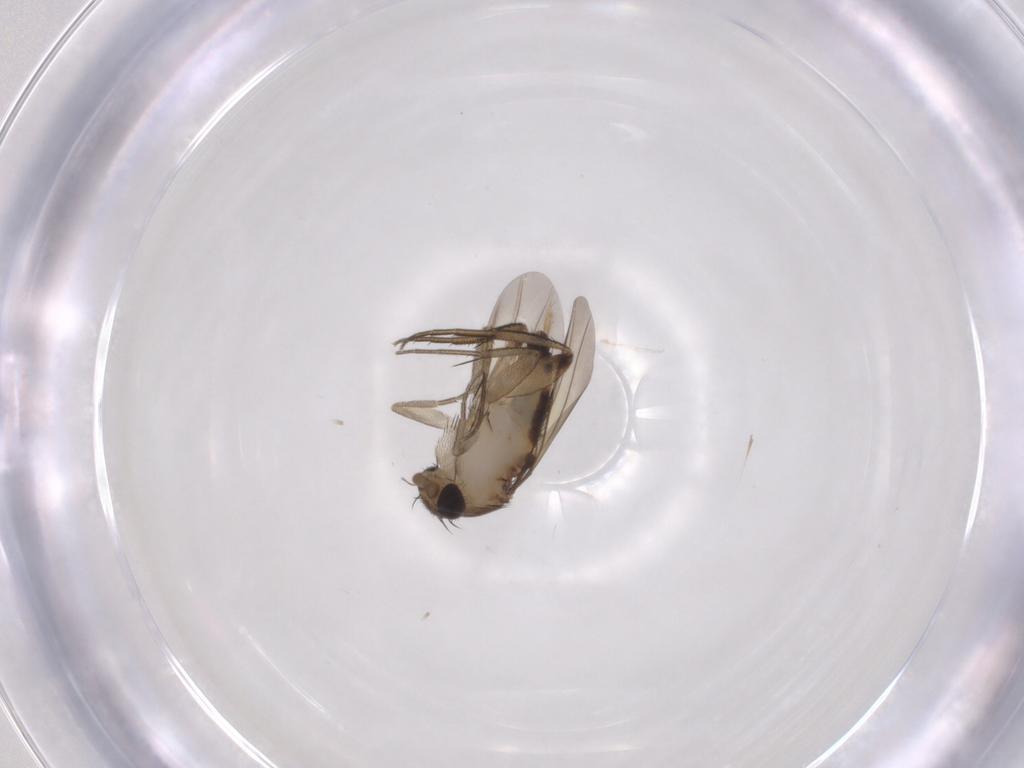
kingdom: Animalia
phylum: Arthropoda
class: Insecta
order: Diptera
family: Phoridae
